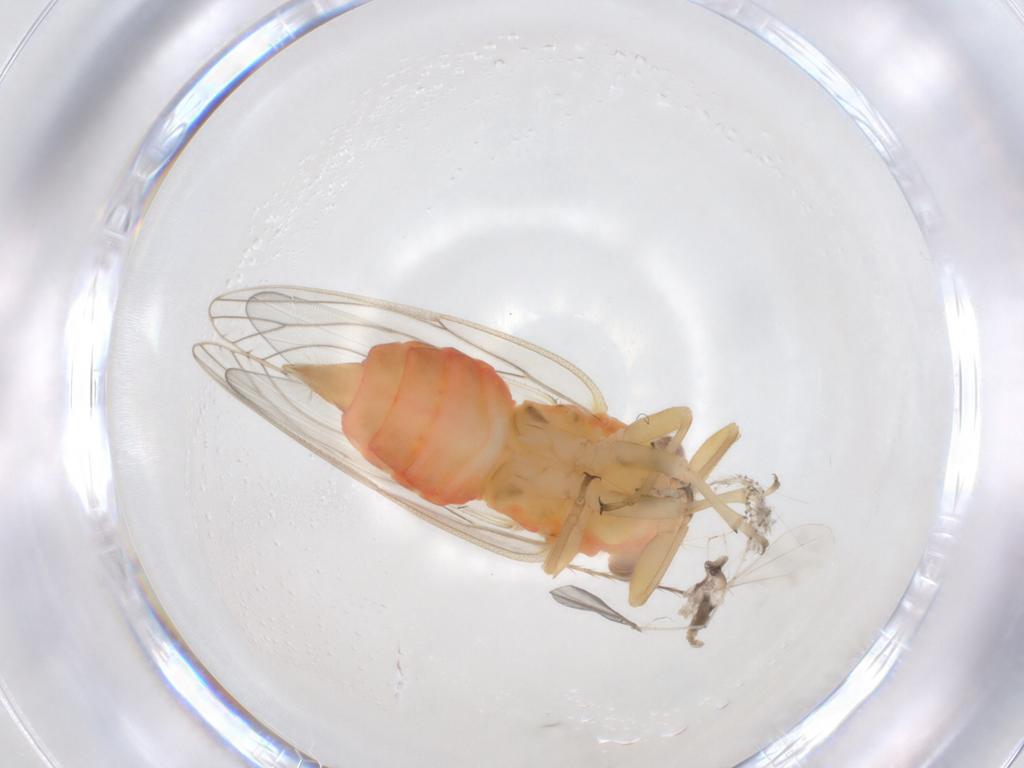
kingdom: Animalia
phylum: Arthropoda
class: Insecta
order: Diptera
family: Cecidomyiidae
